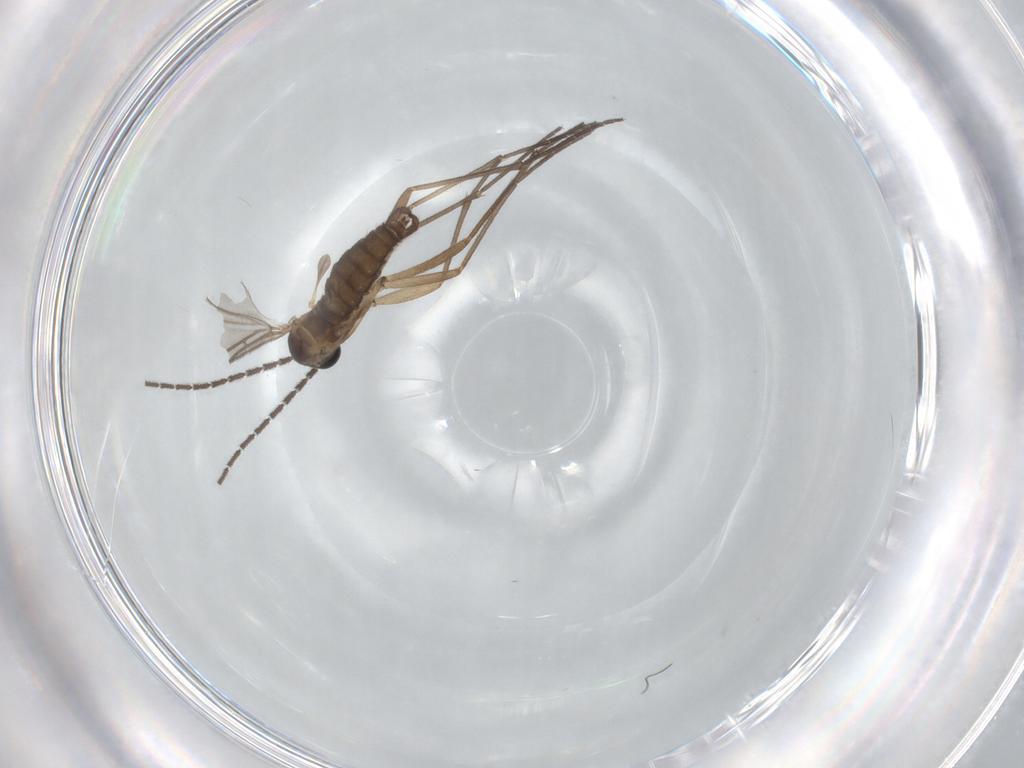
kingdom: Animalia
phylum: Arthropoda
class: Insecta
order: Diptera
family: Sciaridae
